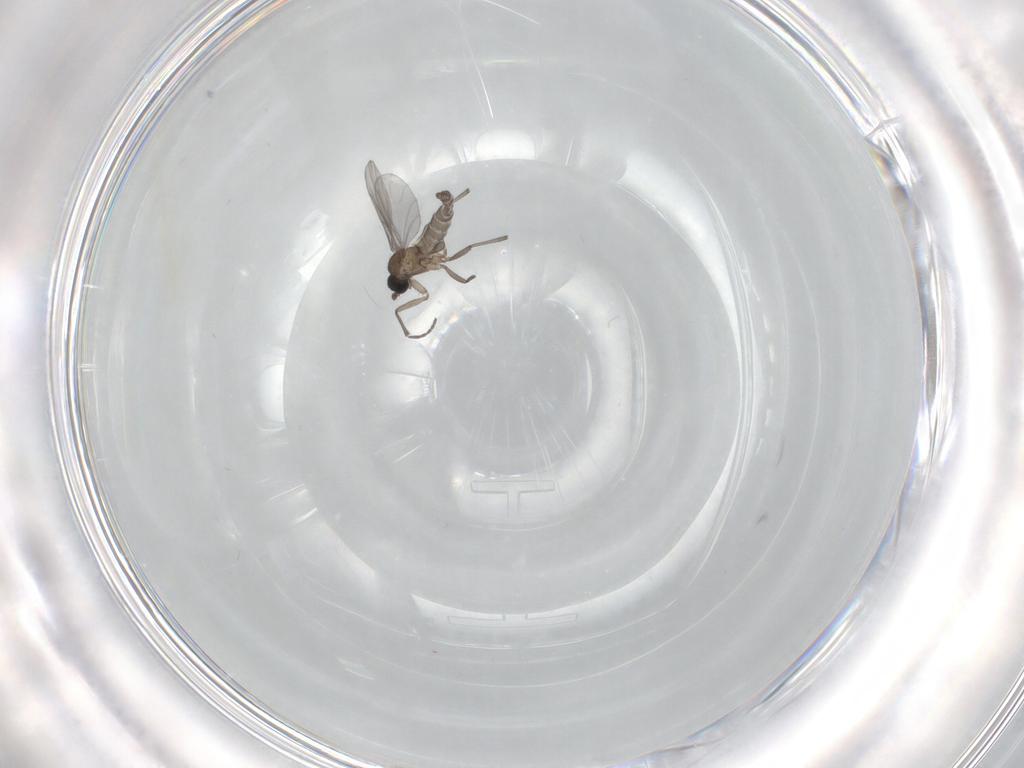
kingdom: Animalia
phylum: Arthropoda
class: Insecta
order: Diptera
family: Sciaridae
